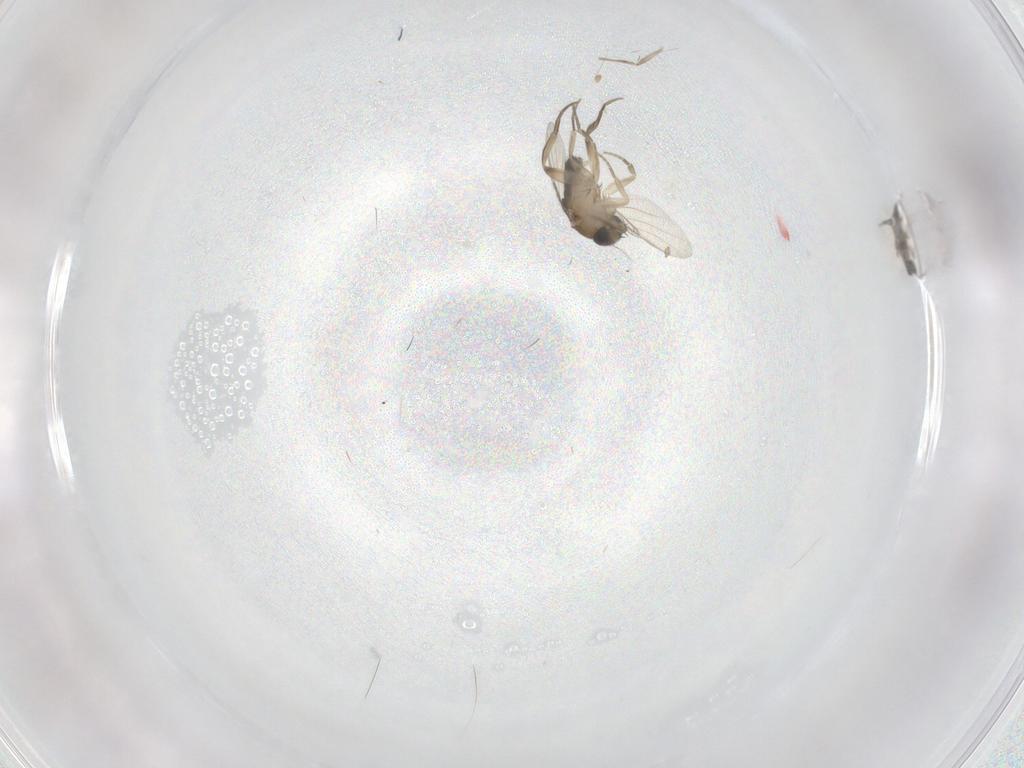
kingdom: Animalia
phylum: Arthropoda
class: Insecta
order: Diptera
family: Phoridae
